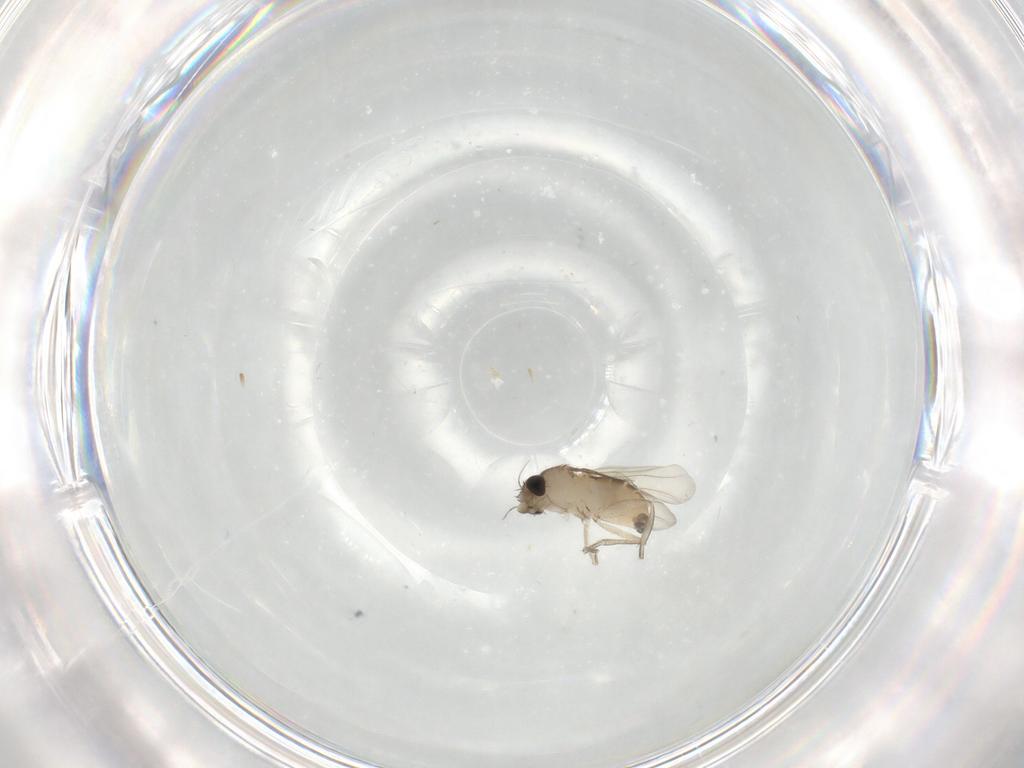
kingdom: Animalia
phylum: Arthropoda
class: Insecta
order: Diptera
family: Phoridae
